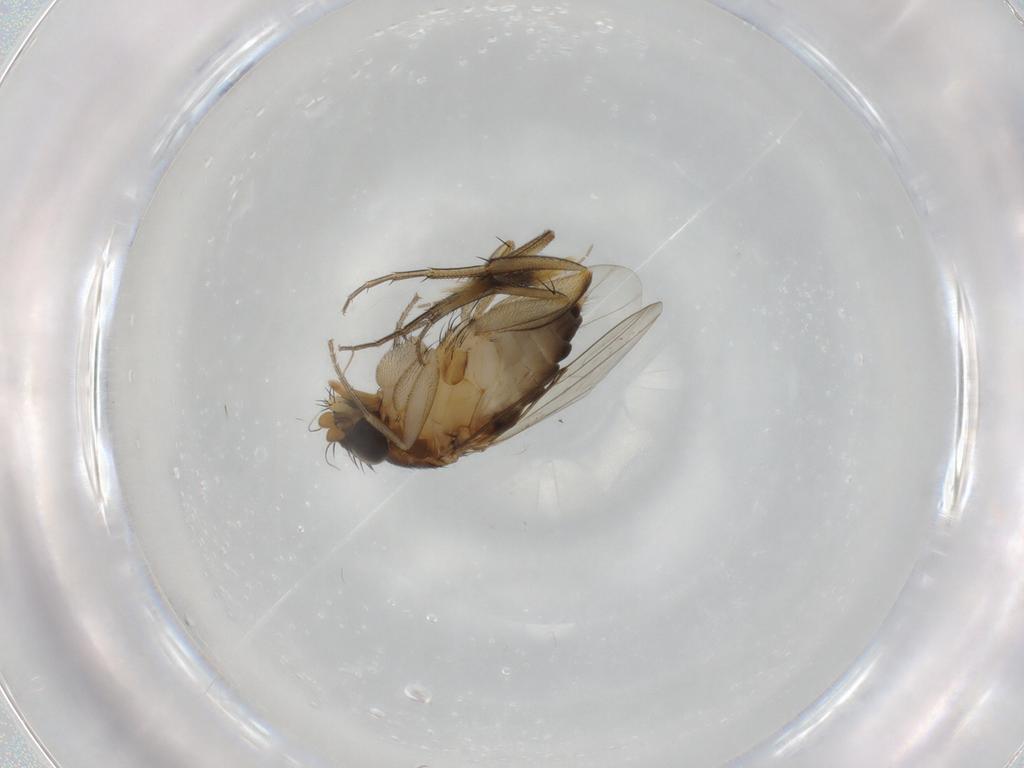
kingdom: Animalia
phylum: Arthropoda
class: Insecta
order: Diptera
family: Phoridae
